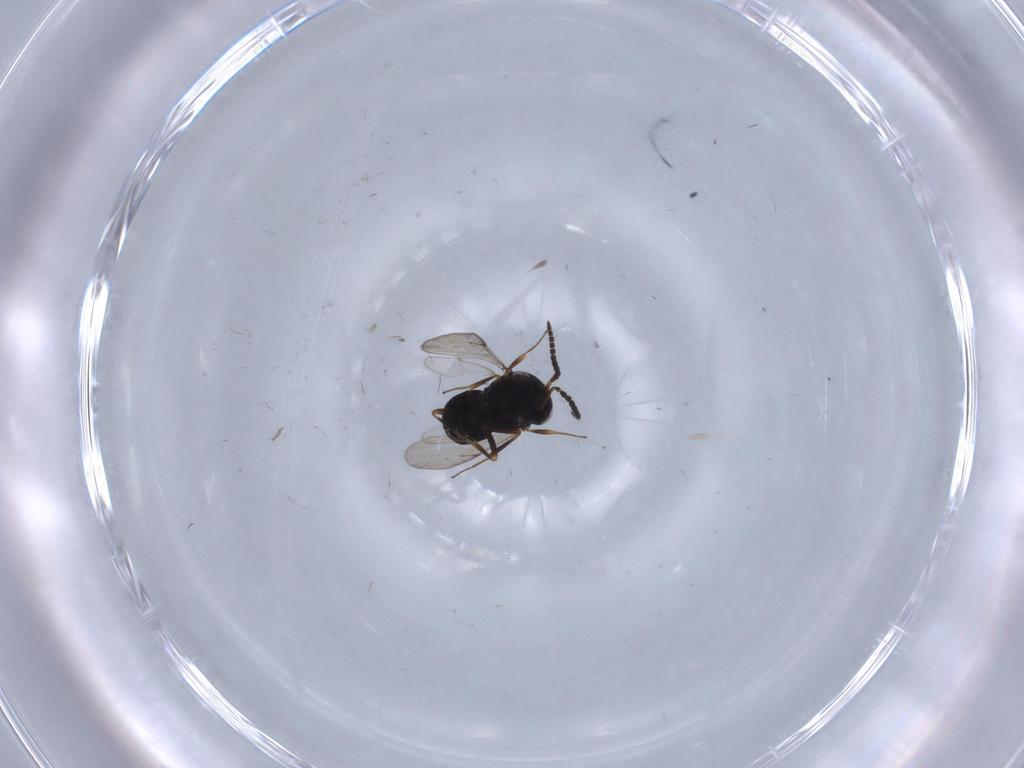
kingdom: Animalia
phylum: Arthropoda
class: Insecta
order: Hymenoptera
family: Scelionidae
